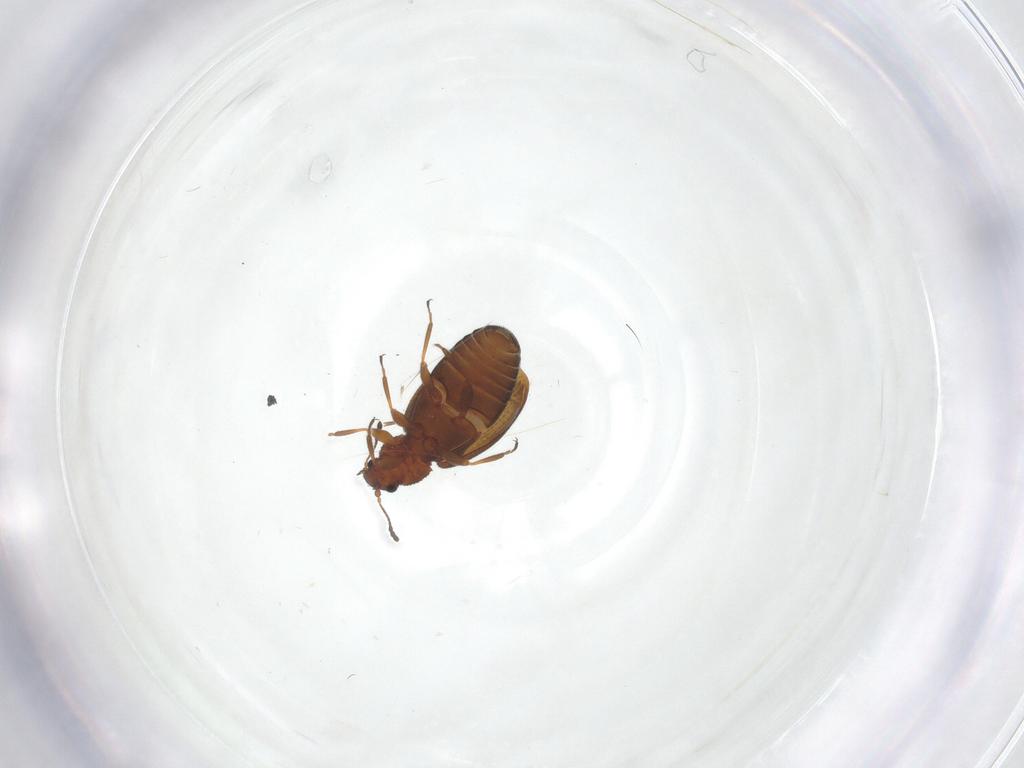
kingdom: Animalia
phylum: Arthropoda
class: Insecta
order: Coleoptera
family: Latridiidae
